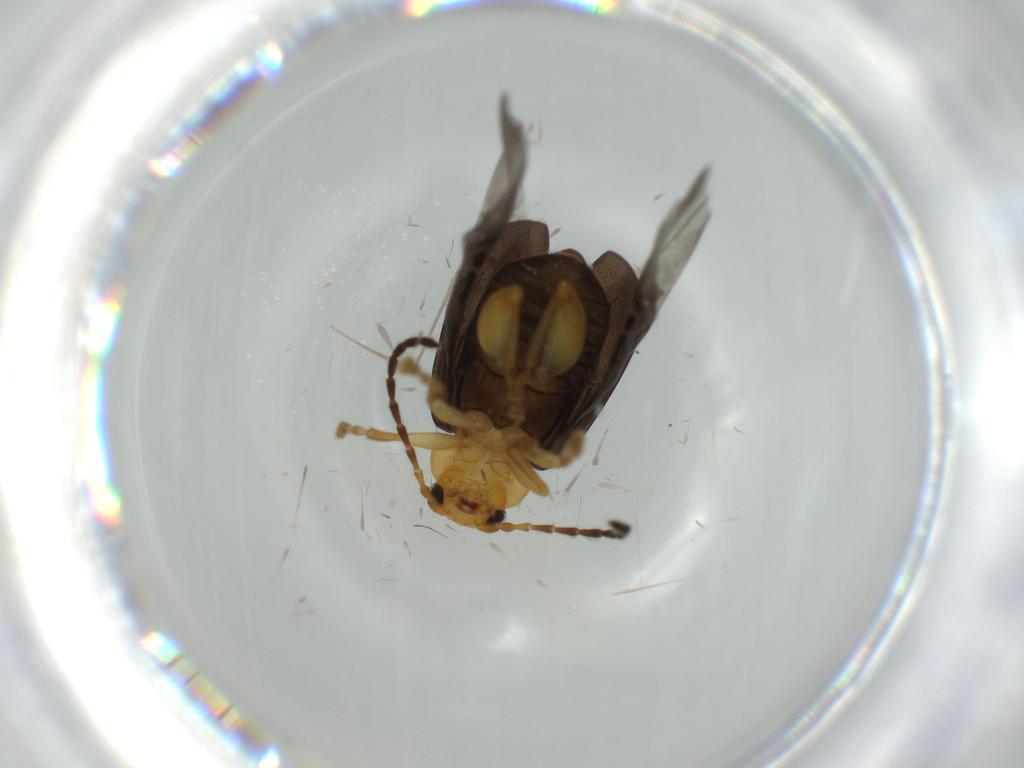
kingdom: Animalia
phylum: Arthropoda
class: Insecta
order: Coleoptera
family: Chrysomelidae
